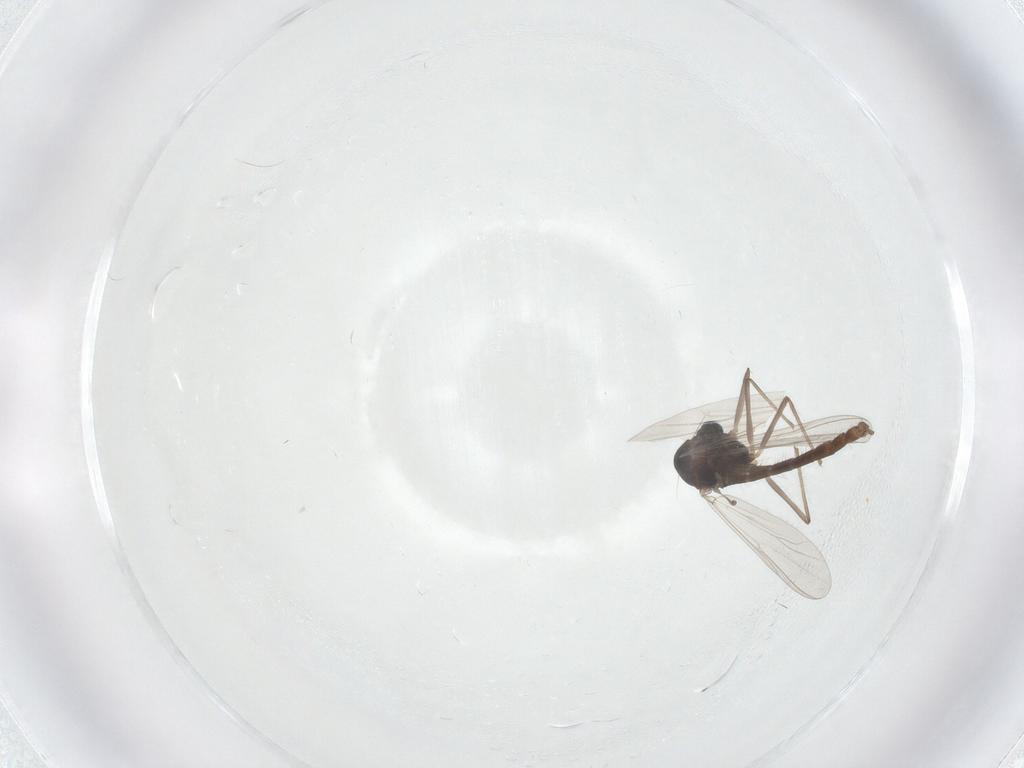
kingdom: Animalia
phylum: Arthropoda
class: Insecta
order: Diptera
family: Chironomidae
